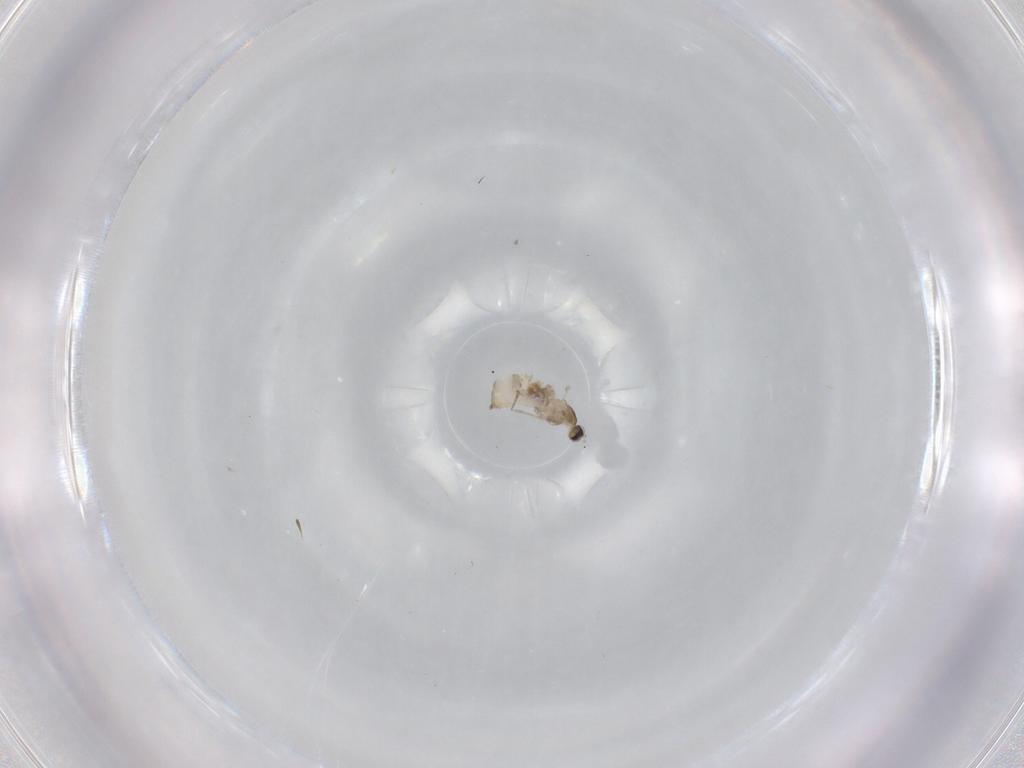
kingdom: Animalia
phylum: Arthropoda
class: Insecta
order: Diptera
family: Cecidomyiidae
